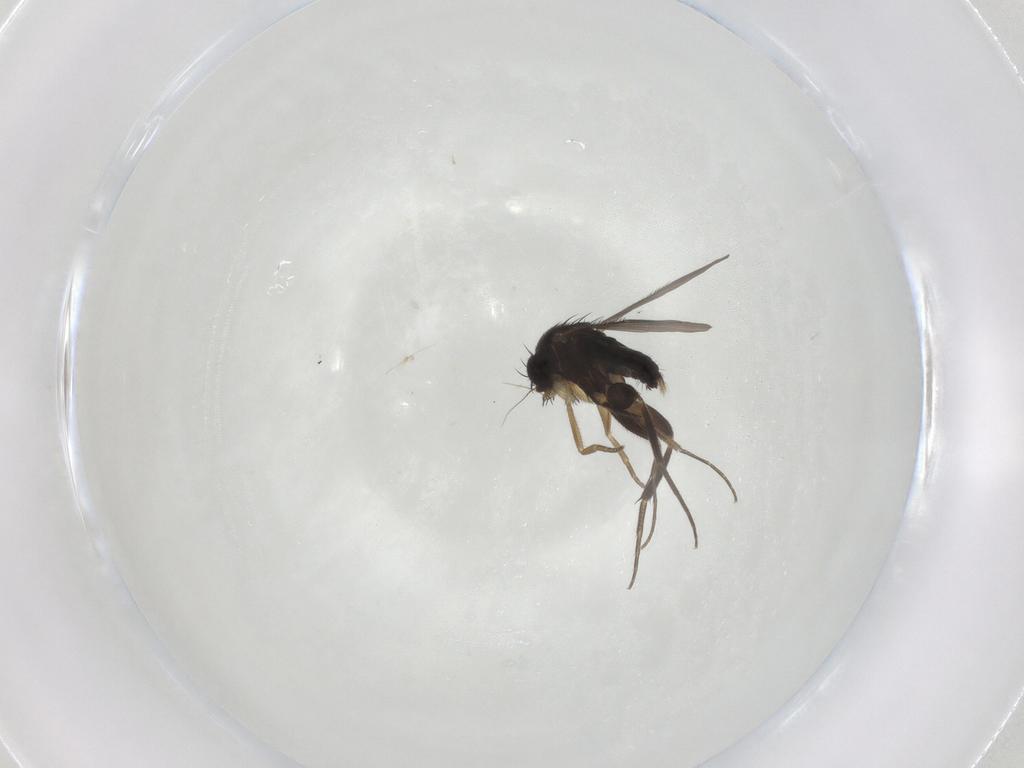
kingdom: Animalia
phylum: Arthropoda
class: Insecta
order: Diptera
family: Phoridae
